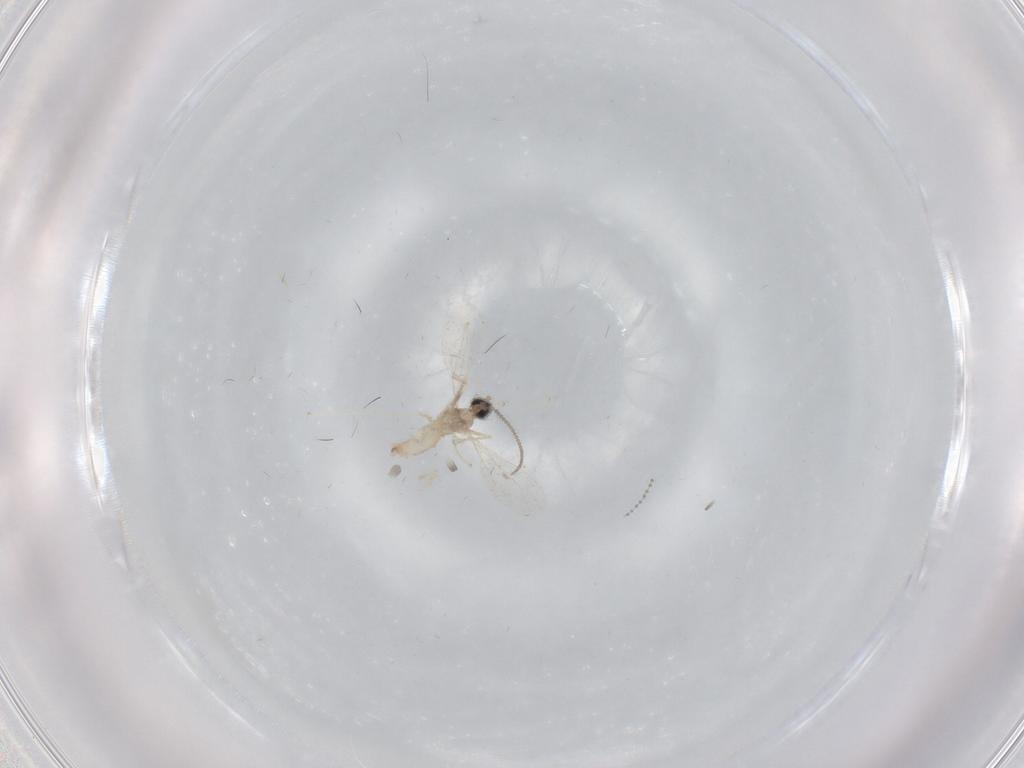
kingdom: Animalia
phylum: Arthropoda
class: Insecta
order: Diptera
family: Cecidomyiidae
